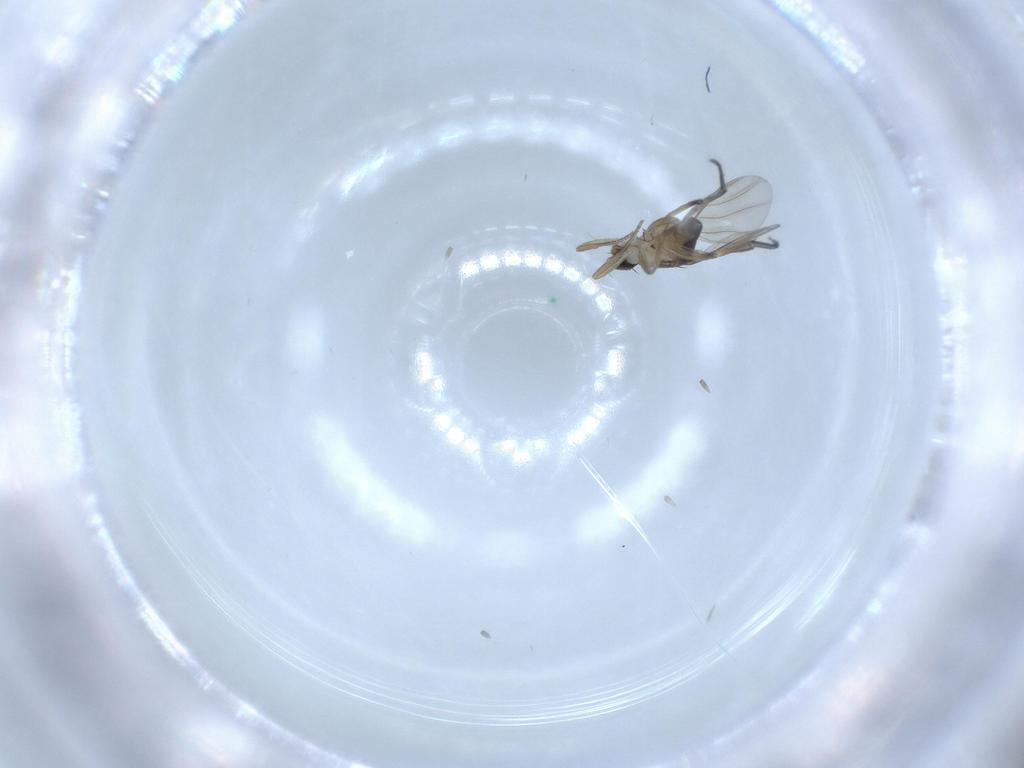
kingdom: Animalia
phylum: Arthropoda
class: Insecta
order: Diptera
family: Phoridae
